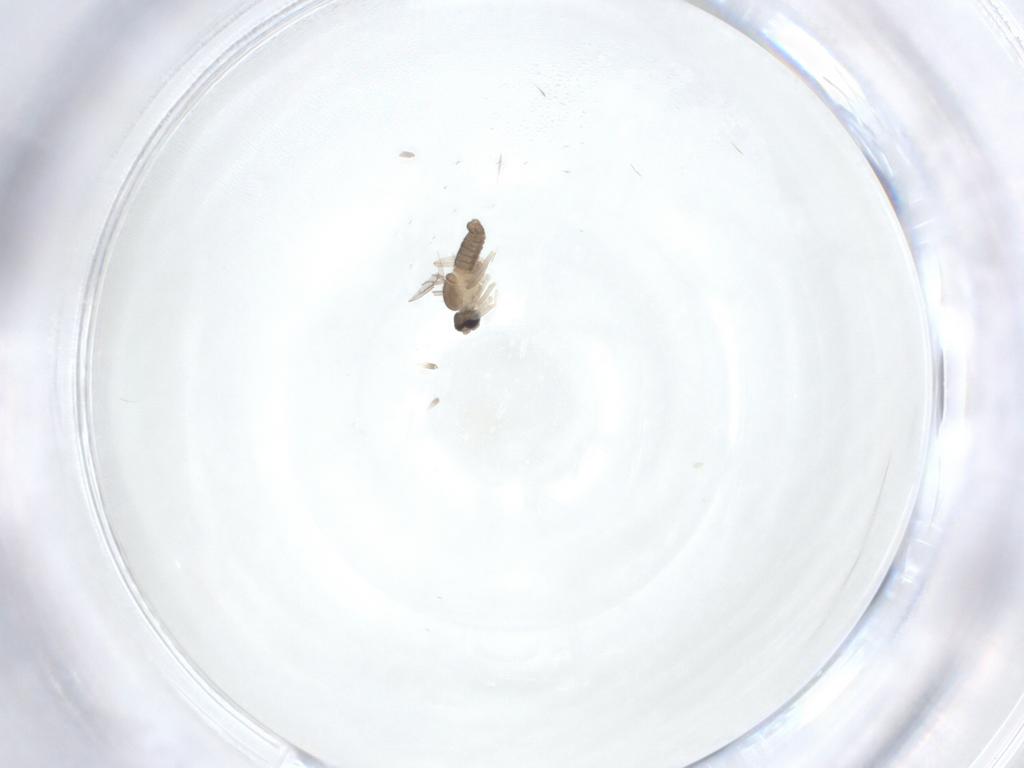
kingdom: Animalia
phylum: Arthropoda
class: Insecta
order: Diptera
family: Cecidomyiidae
